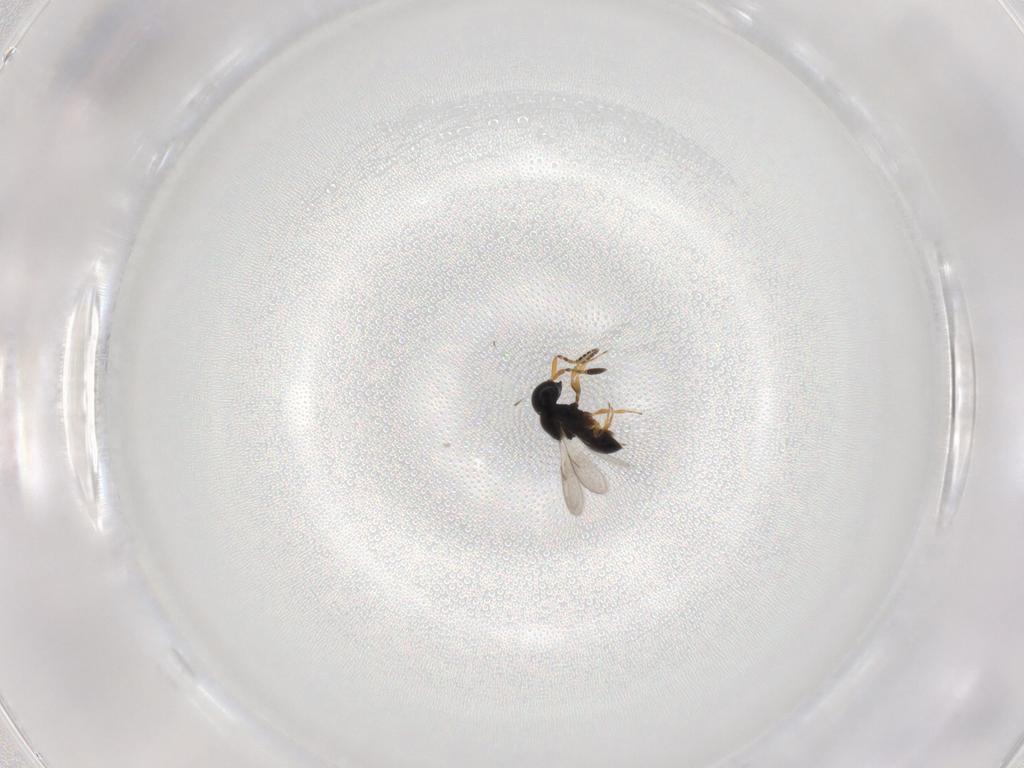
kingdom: Animalia
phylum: Arthropoda
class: Insecta
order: Hymenoptera
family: Scelionidae
